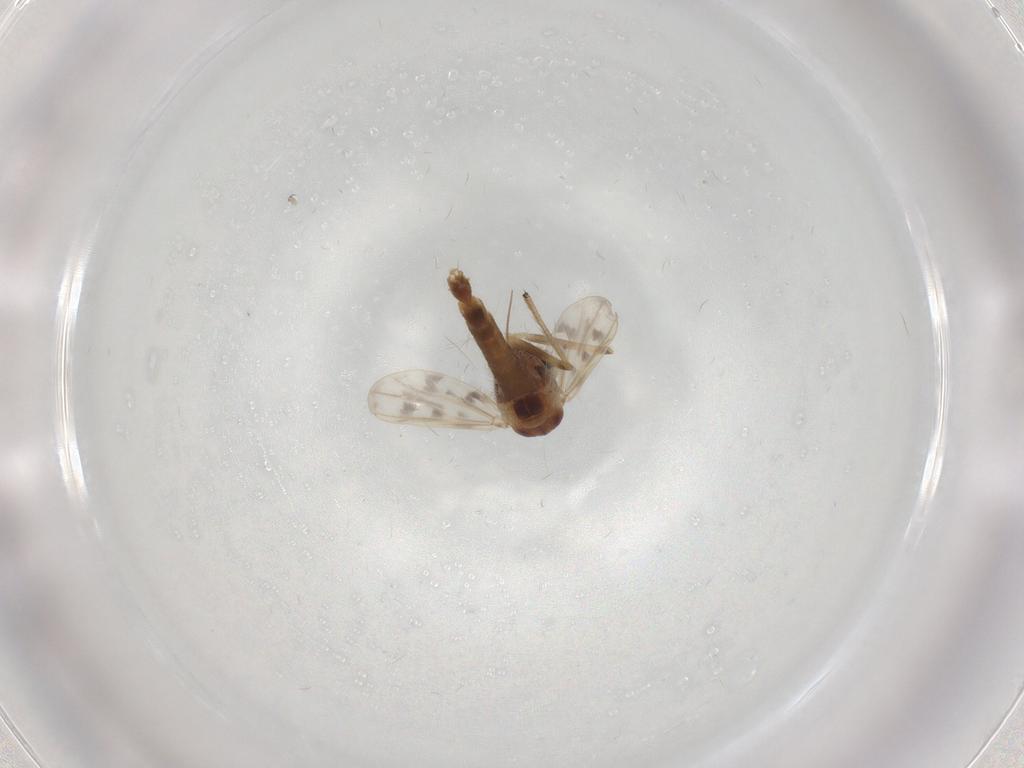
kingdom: Animalia
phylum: Arthropoda
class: Insecta
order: Diptera
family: Chironomidae
